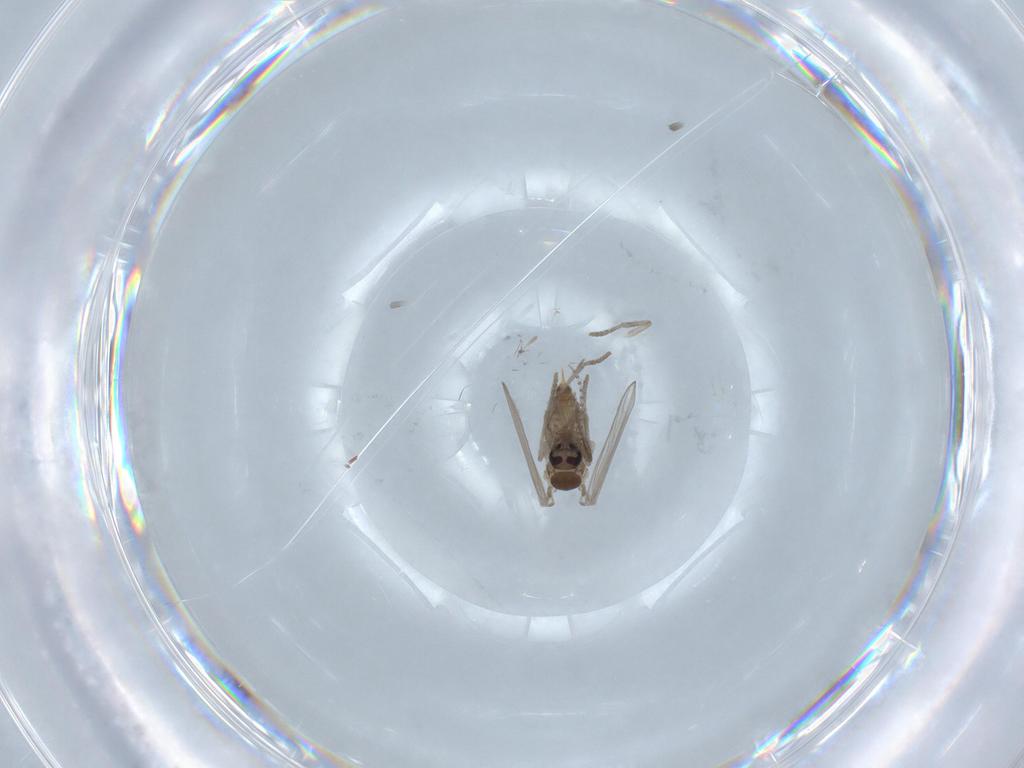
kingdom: Animalia
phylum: Arthropoda
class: Insecta
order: Diptera
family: Psychodidae
